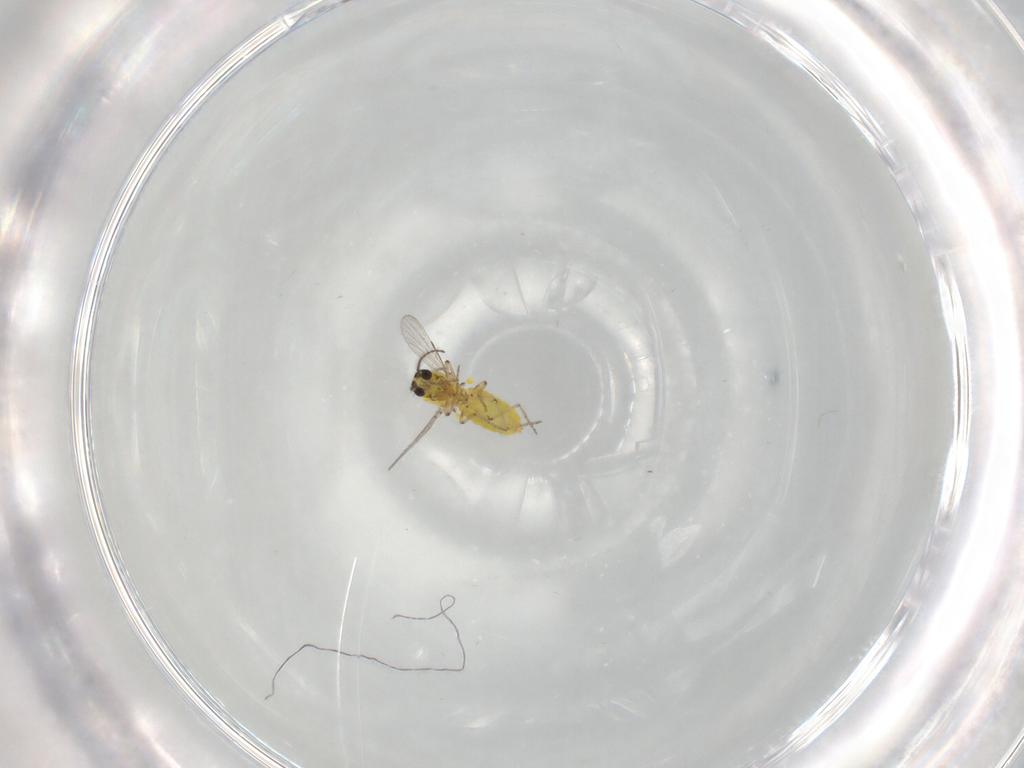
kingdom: Animalia
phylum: Arthropoda
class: Insecta
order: Diptera
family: Ceratopogonidae
